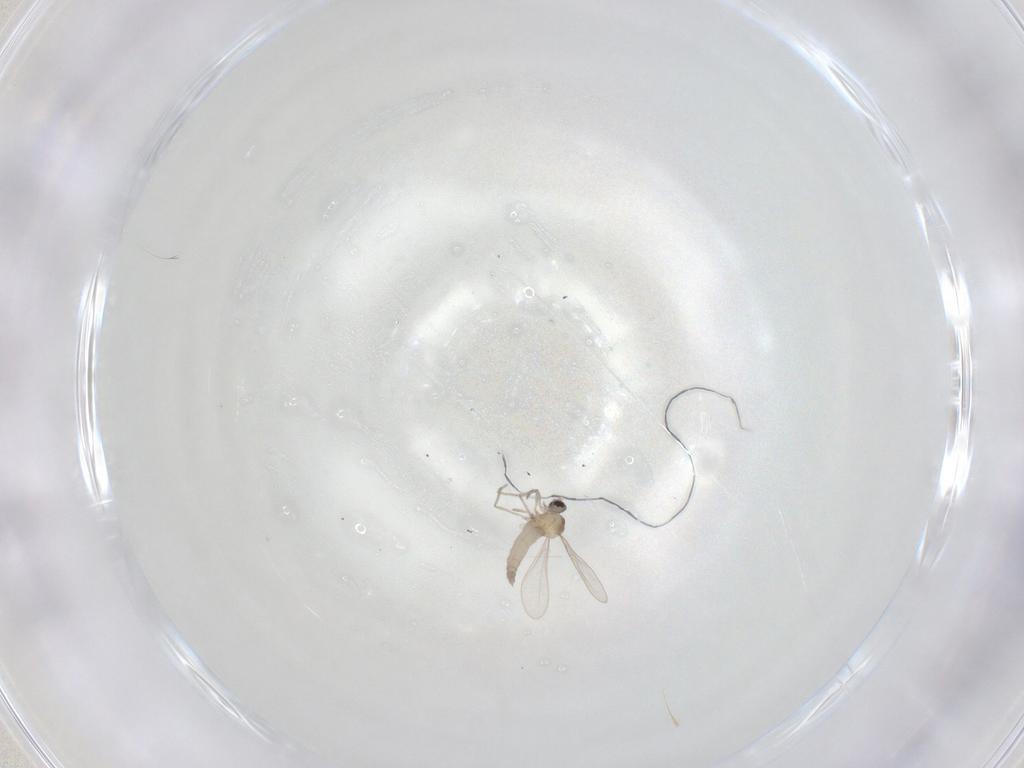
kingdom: Animalia
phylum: Arthropoda
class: Insecta
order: Diptera
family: Cecidomyiidae
